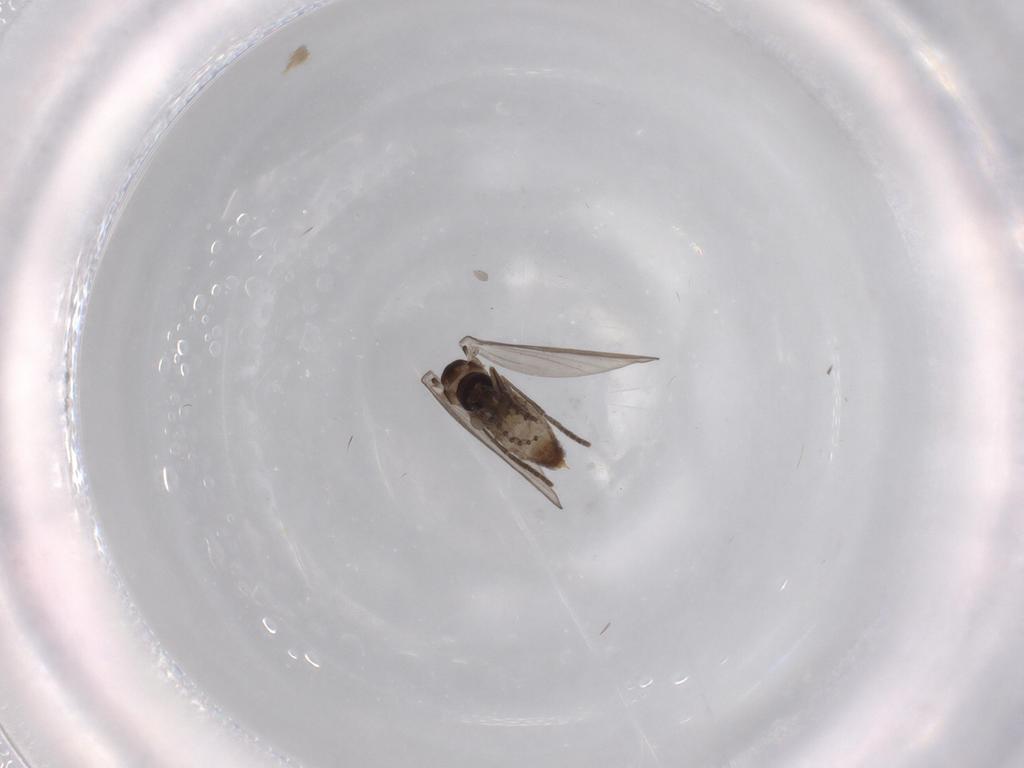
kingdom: Animalia
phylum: Arthropoda
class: Insecta
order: Diptera
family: Psychodidae
